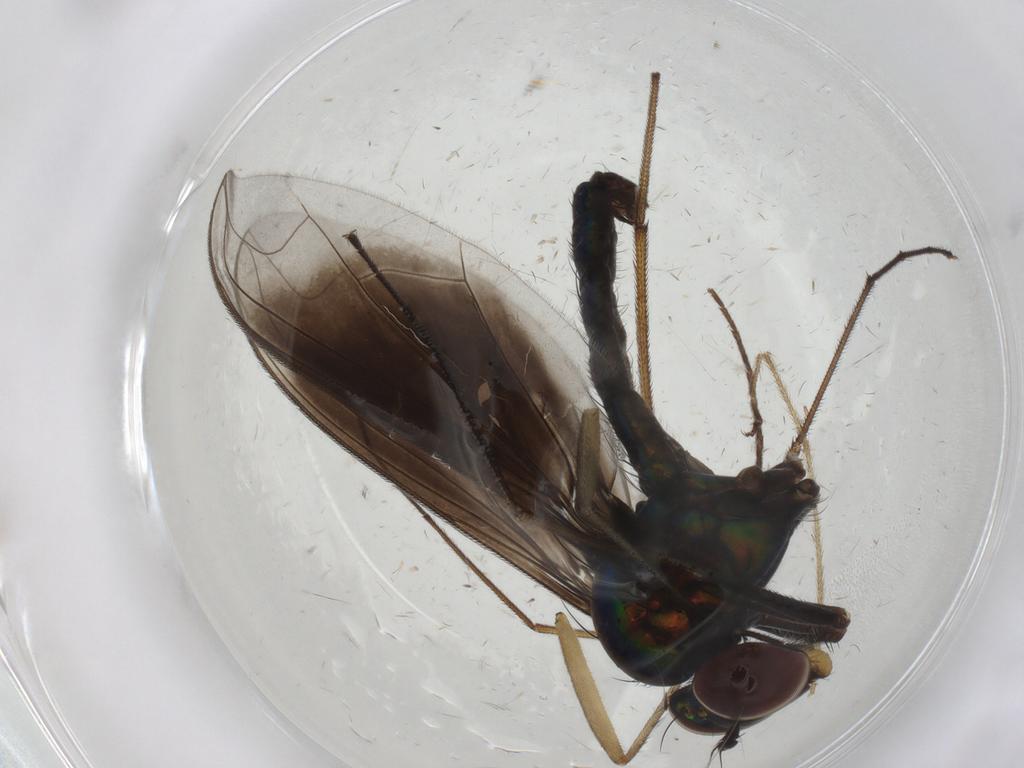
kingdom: Animalia
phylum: Arthropoda
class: Insecta
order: Diptera
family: Dolichopodidae
